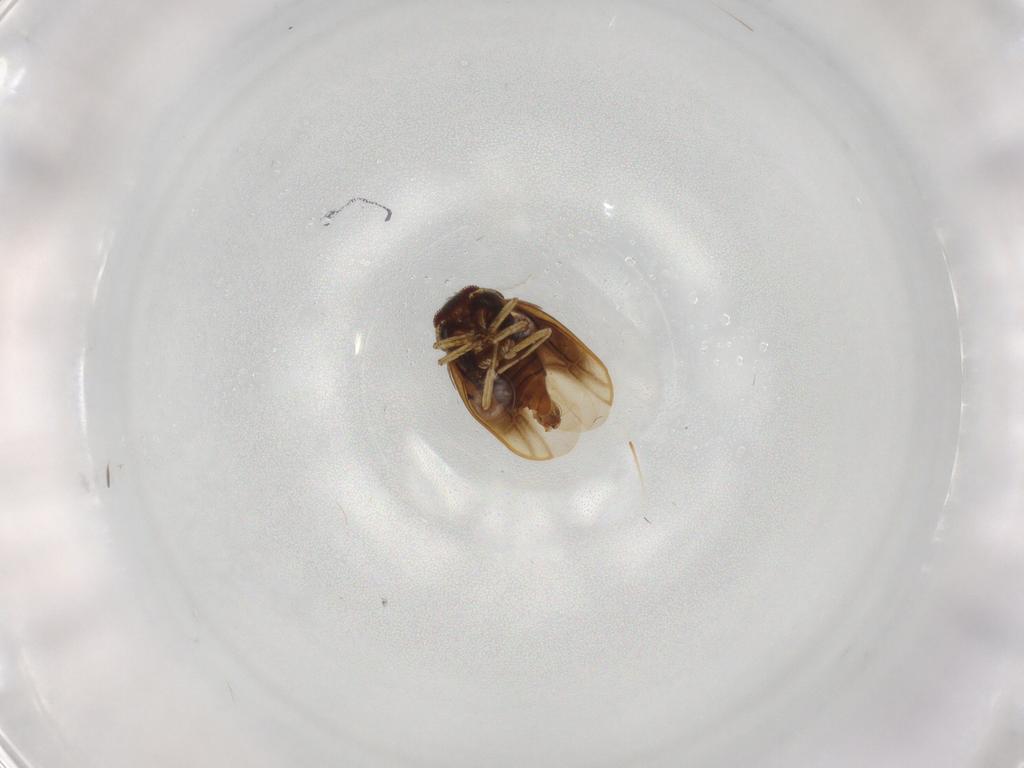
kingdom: Animalia
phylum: Arthropoda
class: Insecta
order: Hemiptera
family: Schizopteridae
